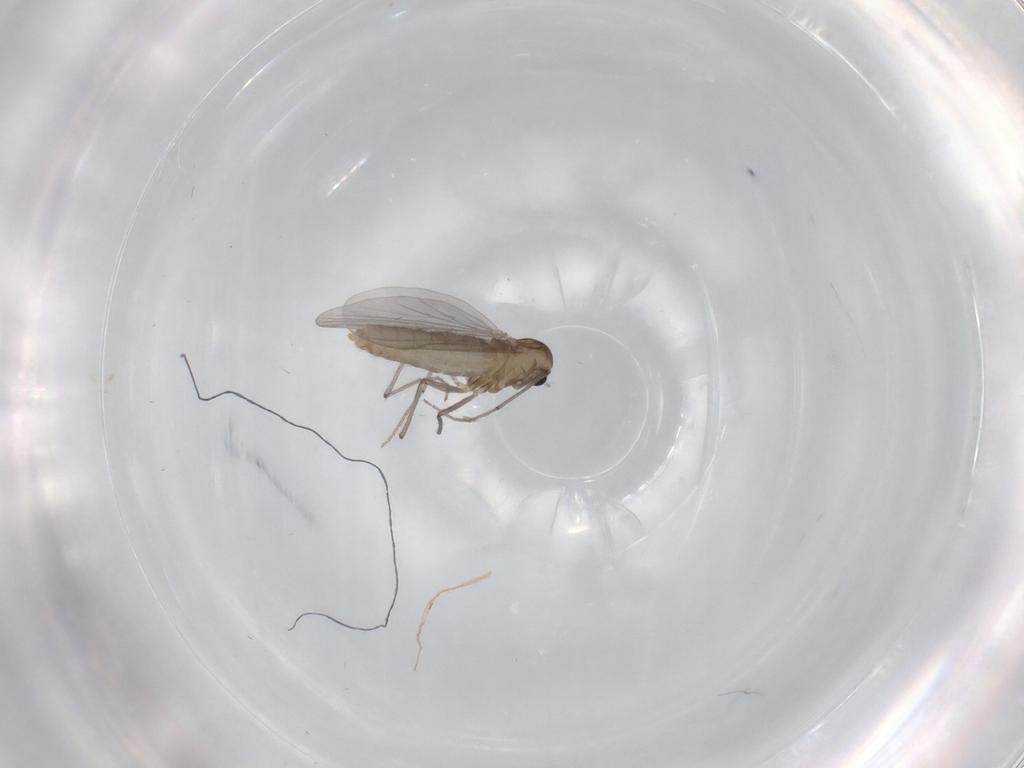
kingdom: Animalia
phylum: Arthropoda
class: Insecta
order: Diptera
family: Chironomidae
